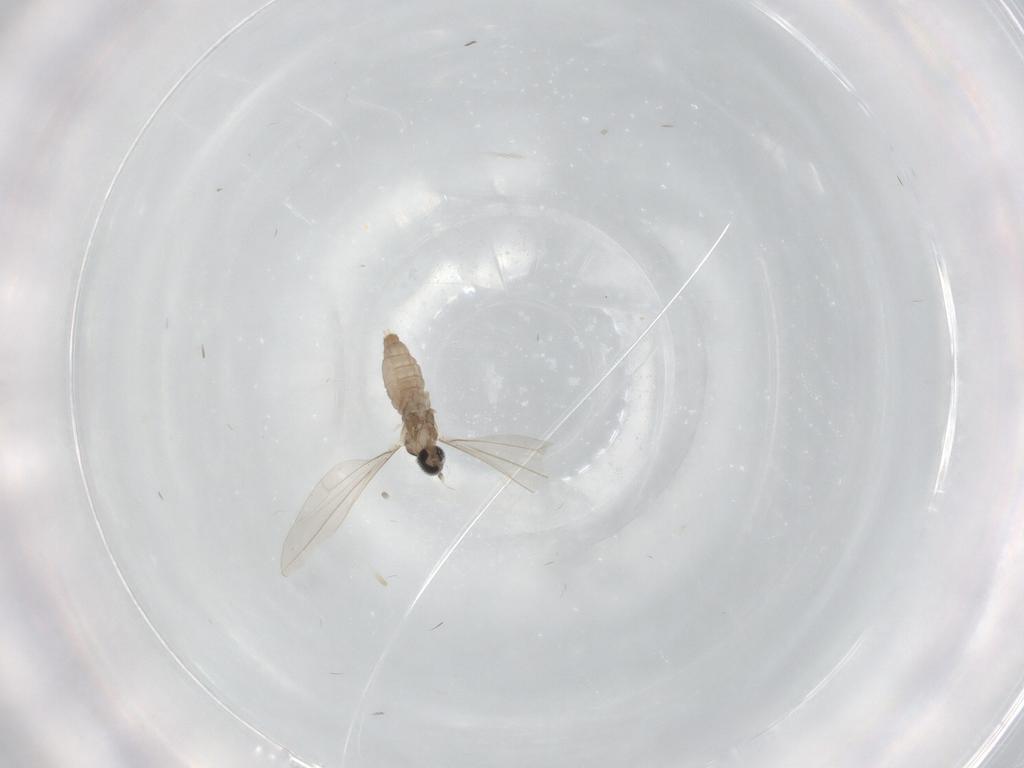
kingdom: Animalia
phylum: Arthropoda
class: Insecta
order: Diptera
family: Cecidomyiidae
